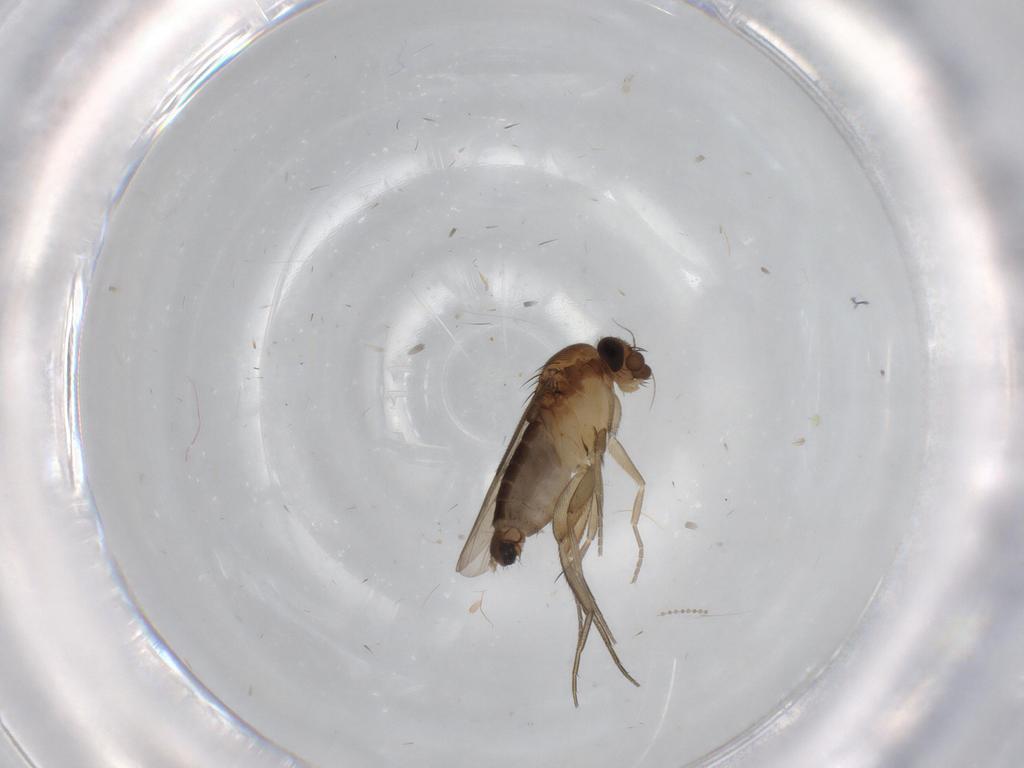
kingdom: Animalia
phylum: Arthropoda
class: Insecta
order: Diptera
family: Phoridae
